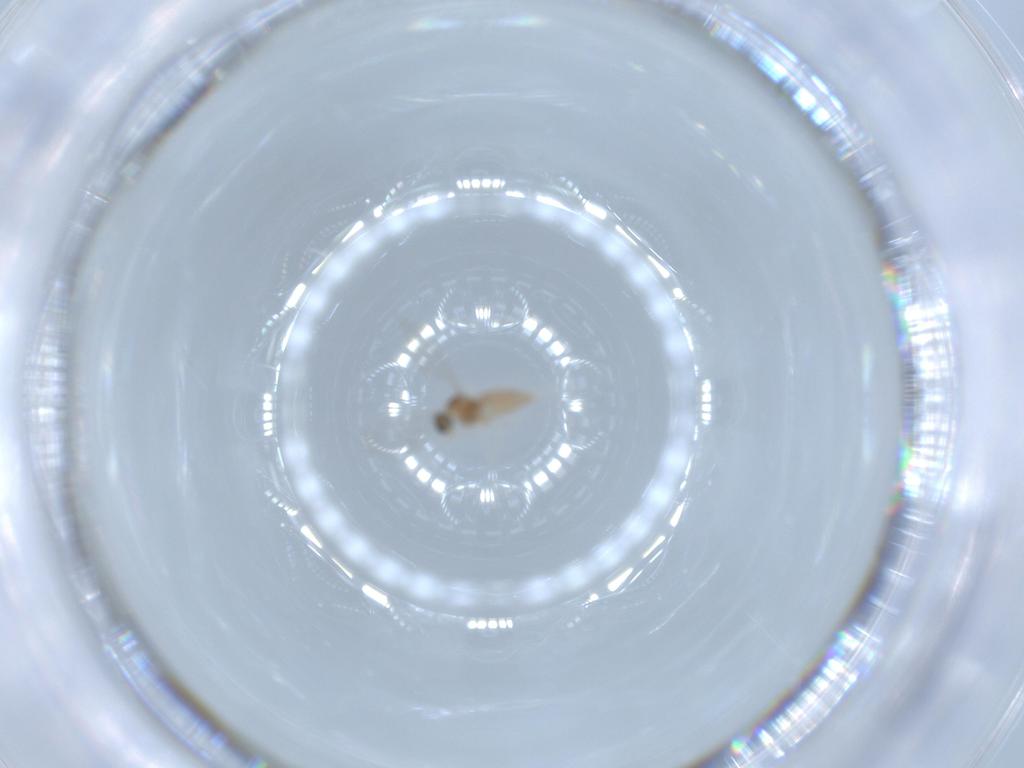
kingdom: Animalia
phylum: Arthropoda
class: Insecta
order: Diptera
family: Cecidomyiidae
